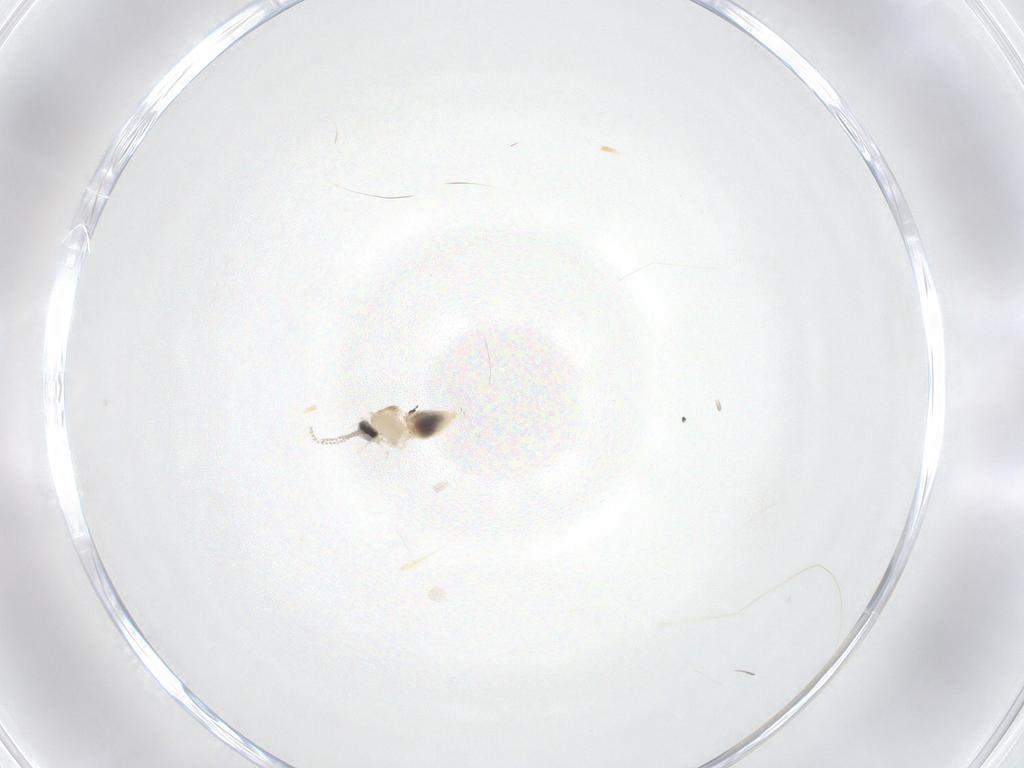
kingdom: Animalia
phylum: Arthropoda
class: Insecta
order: Diptera
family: Cecidomyiidae
